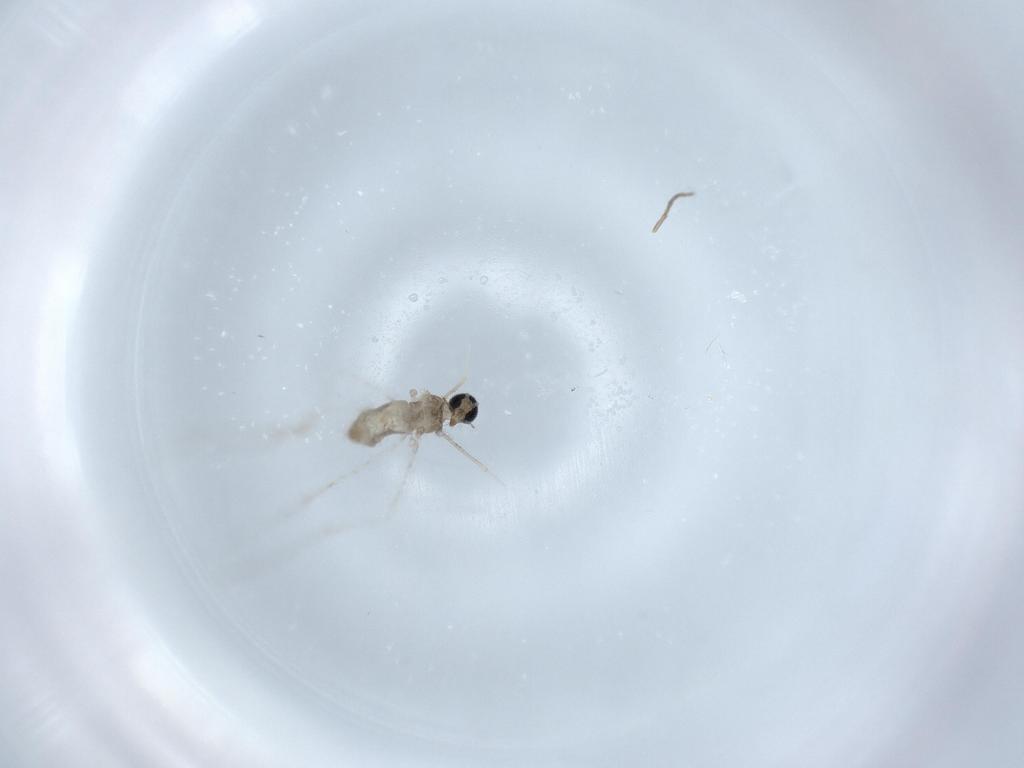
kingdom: Animalia
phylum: Arthropoda
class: Insecta
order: Diptera
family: Cecidomyiidae
